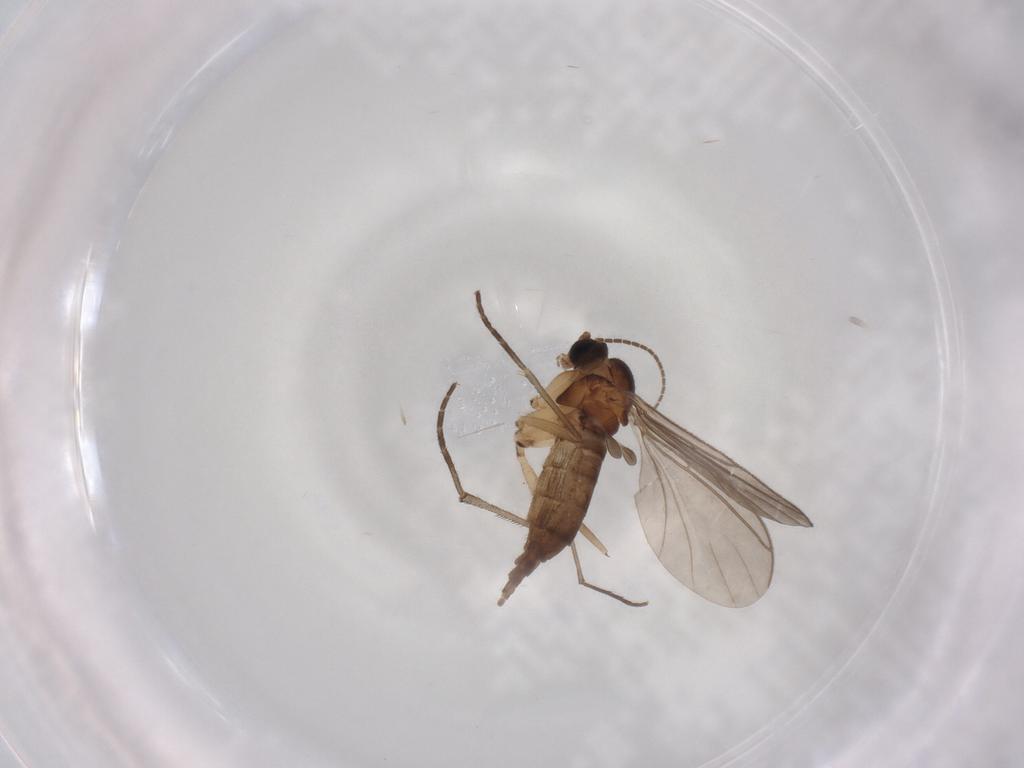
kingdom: Animalia
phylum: Arthropoda
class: Insecta
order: Diptera
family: Sciaridae
